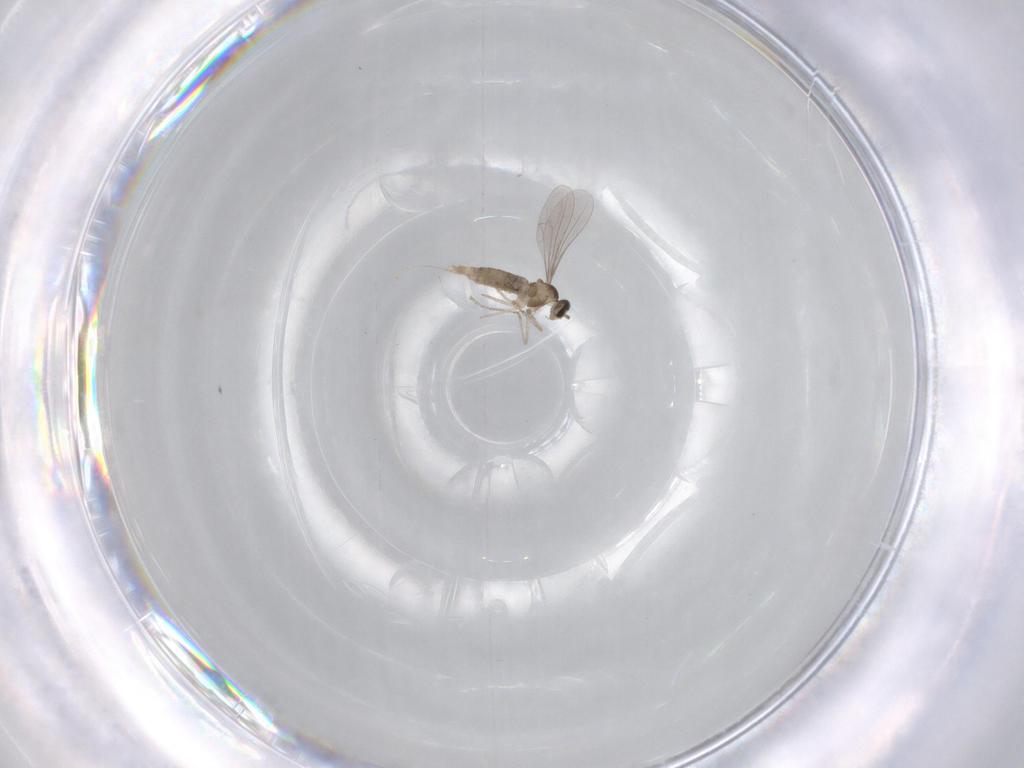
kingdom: Animalia
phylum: Arthropoda
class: Insecta
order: Diptera
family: Cecidomyiidae
